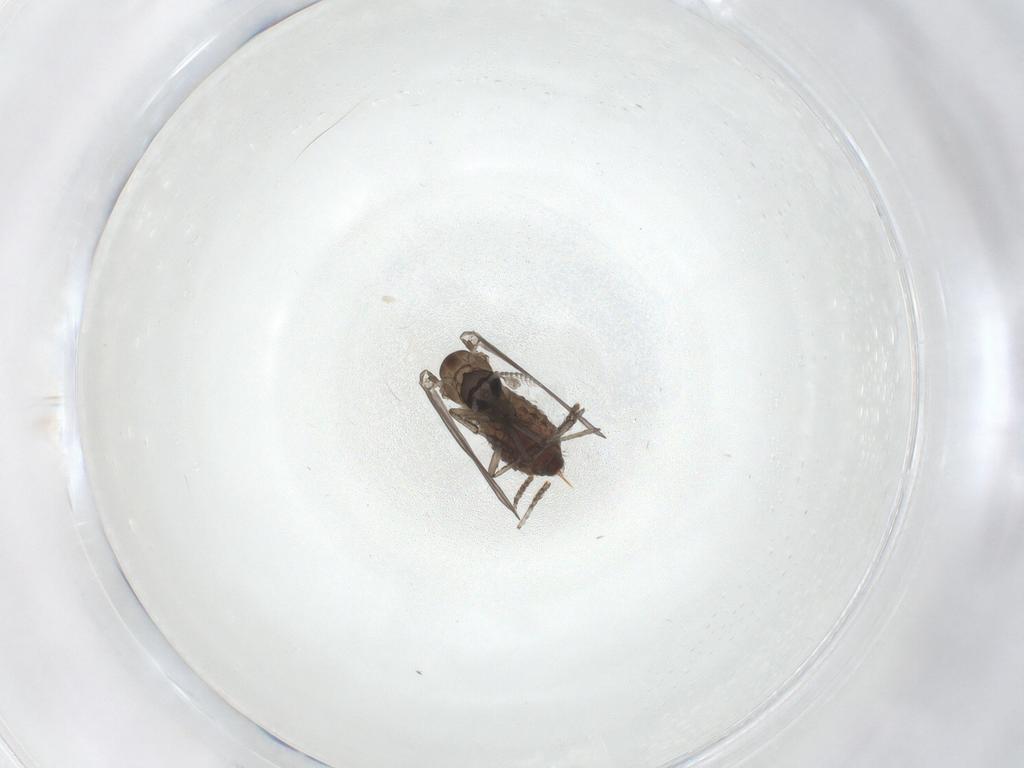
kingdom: Animalia
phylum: Arthropoda
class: Insecta
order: Diptera
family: Psychodidae
